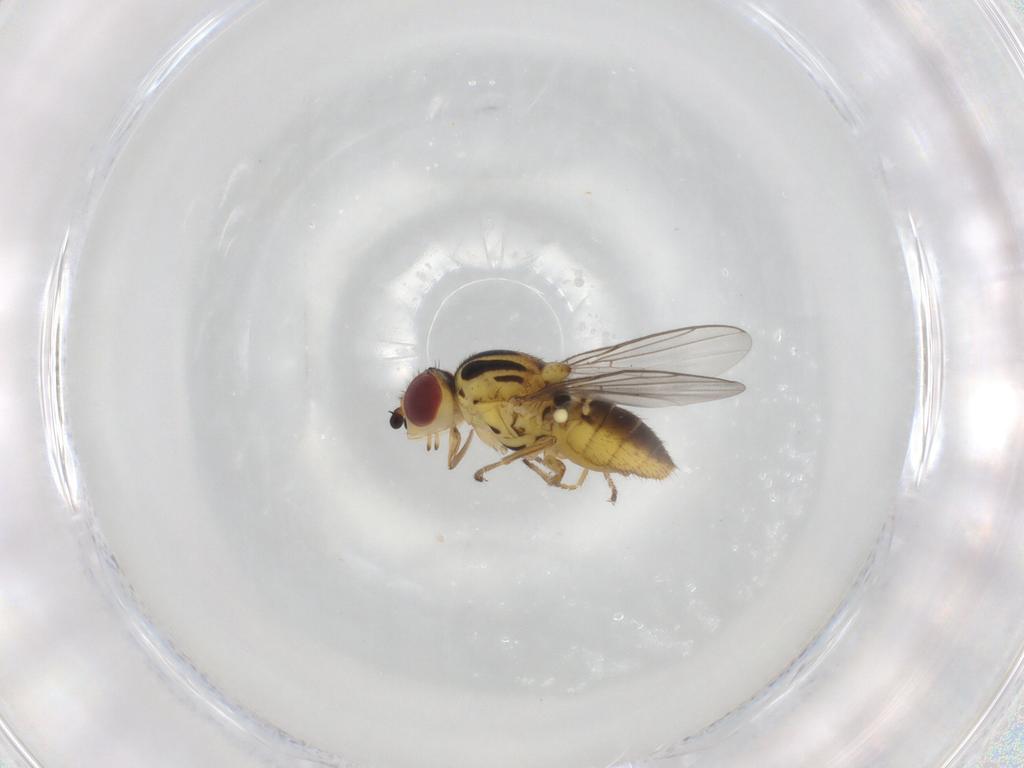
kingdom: Animalia
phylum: Arthropoda
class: Insecta
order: Diptera
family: Chloropidae
